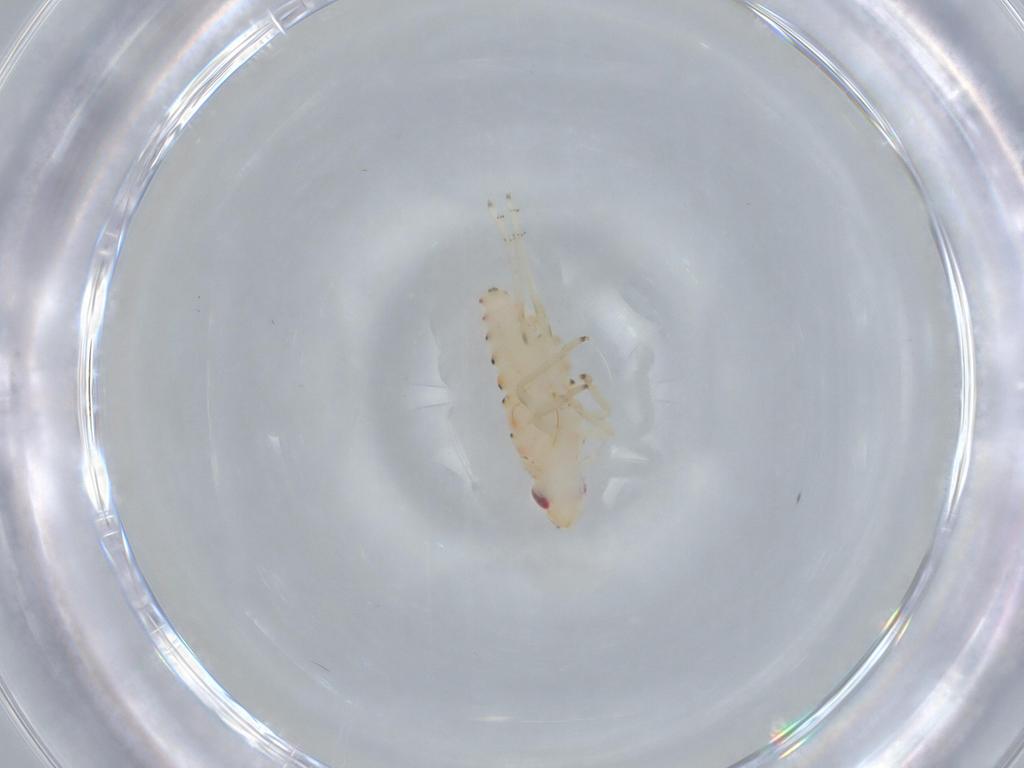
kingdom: Animalia
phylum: Arthropoda
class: Insecta
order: Hemiptera
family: Tropiduchidae
